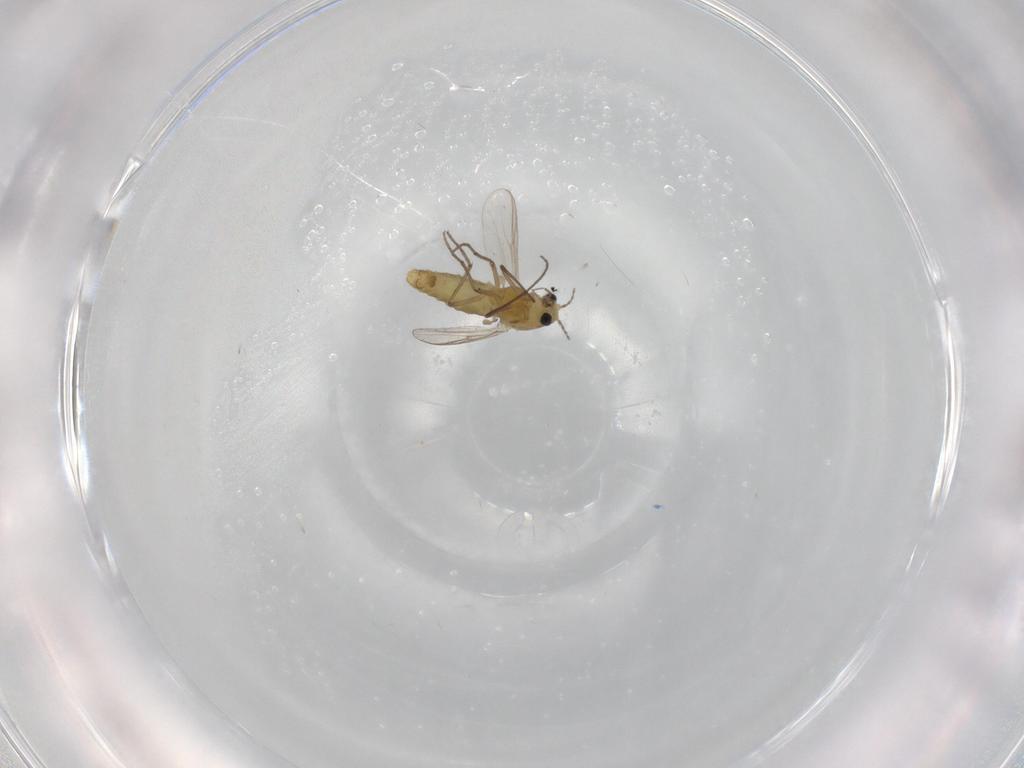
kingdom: Animalia
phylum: Arthropoda
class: Insecta
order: Diptera
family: Chironomidae
